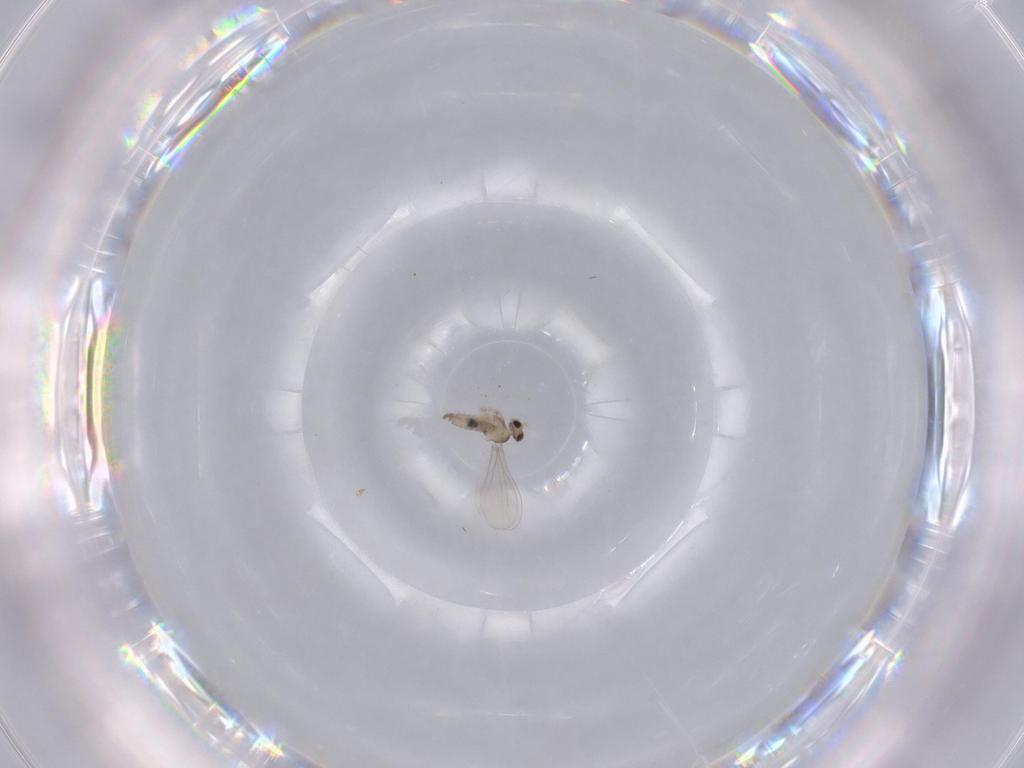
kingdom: Animalia
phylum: Arthropoda
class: Insecta
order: Diptera
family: Cecidomyiidae
